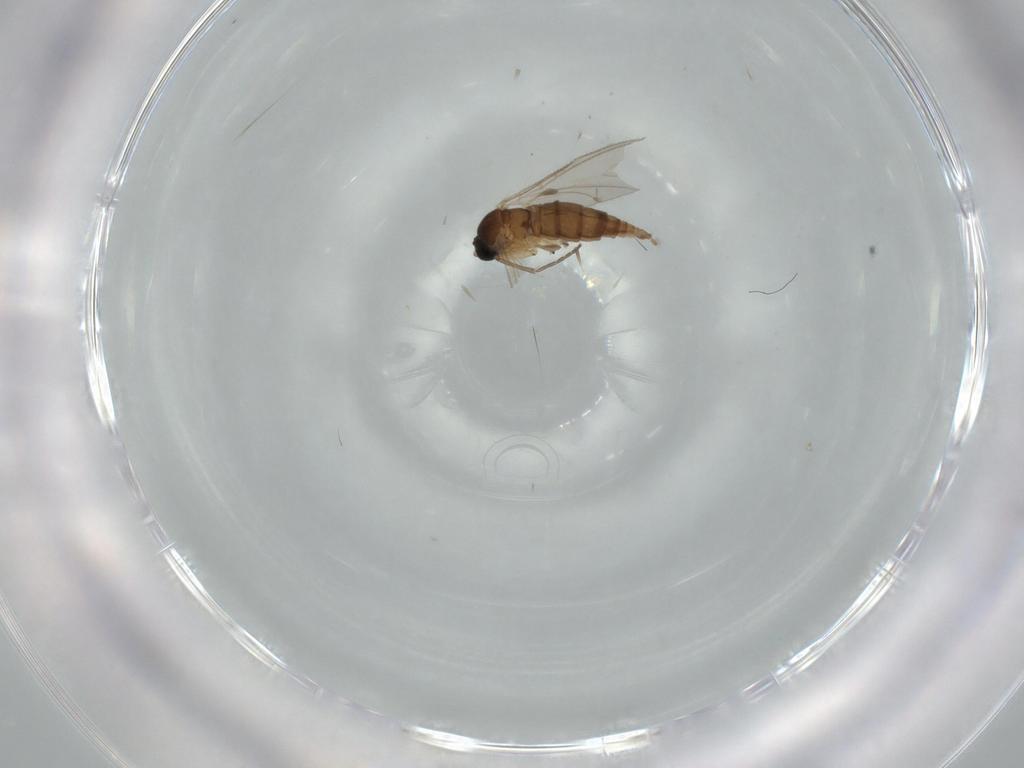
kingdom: Animalia
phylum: Arthropoda
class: Insecta
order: Diptera
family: Sciaridae
